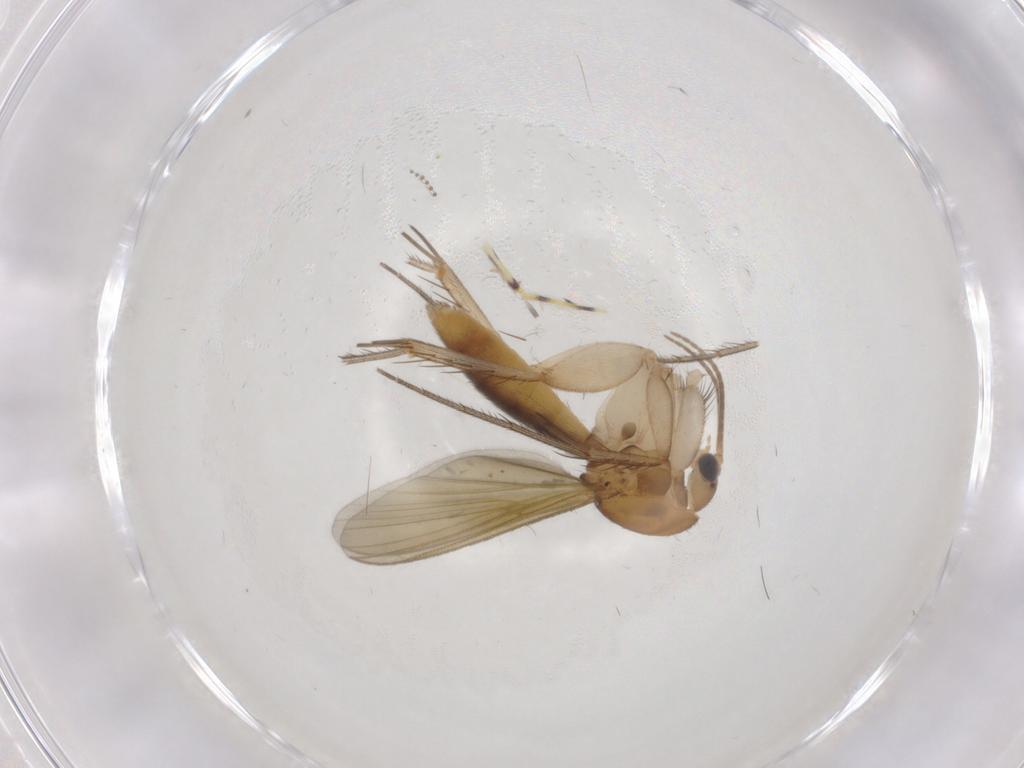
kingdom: Animalia
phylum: Arthropoda
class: Insecta
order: Diptera
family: Mycetophilidae
